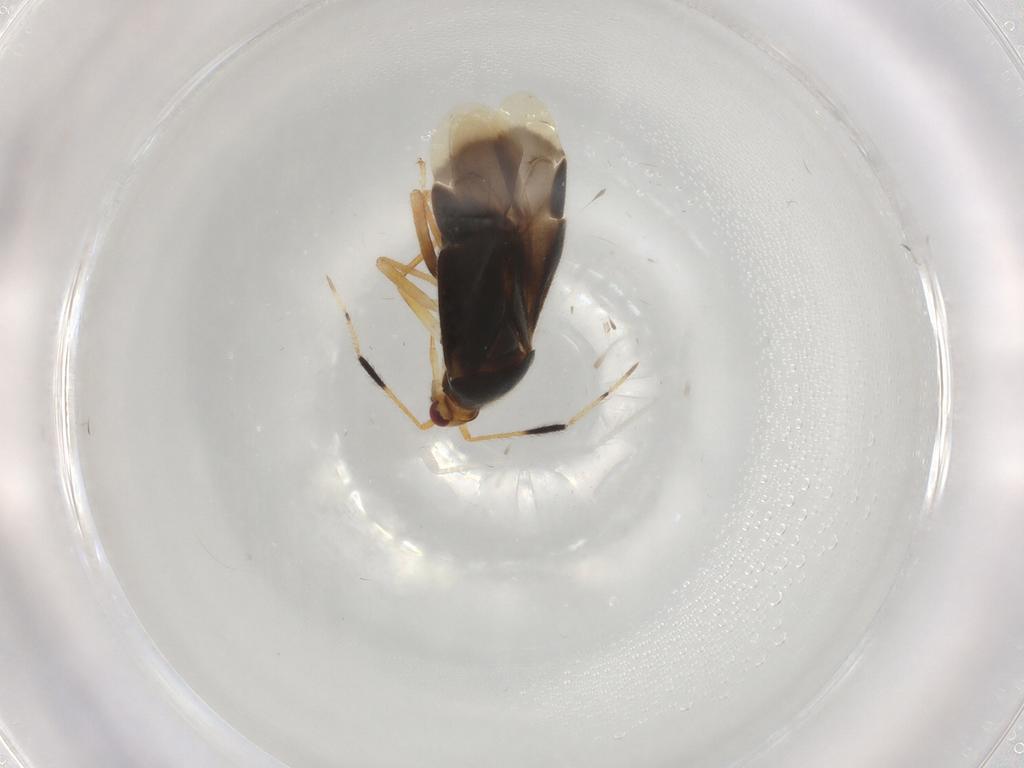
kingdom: Animalia
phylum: Arthropoda
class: Insecta
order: Hemiptera
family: Miridae
